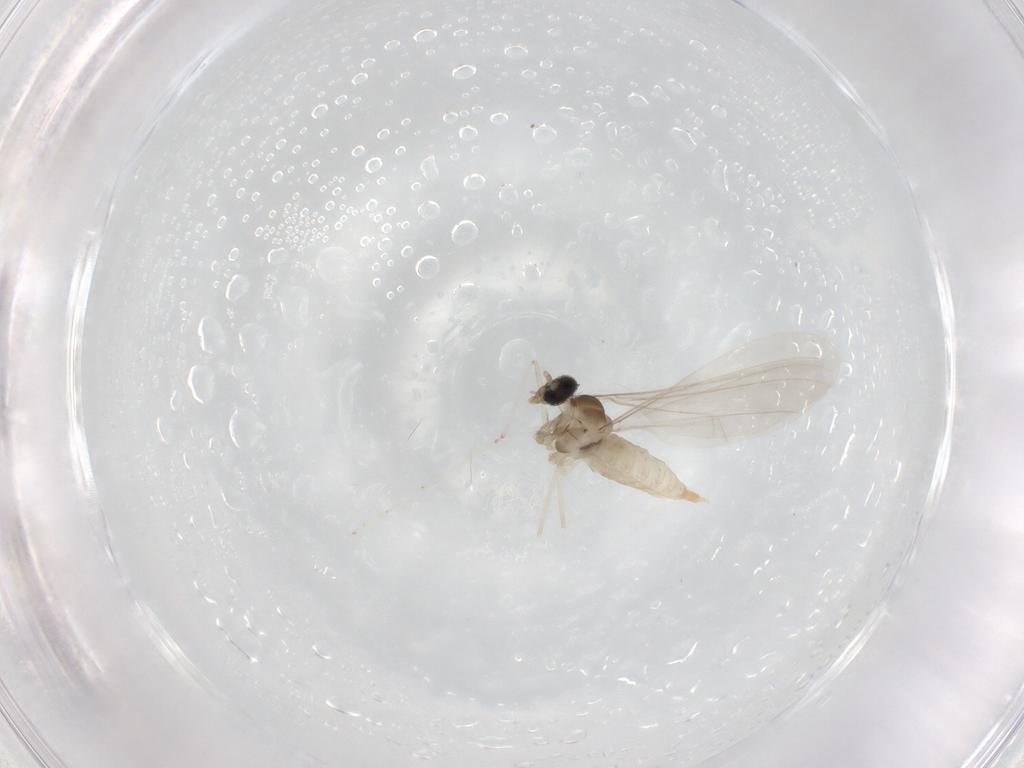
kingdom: Animalia
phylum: Arthropoda
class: Insecta
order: Diptera
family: Cecidomyiidae
